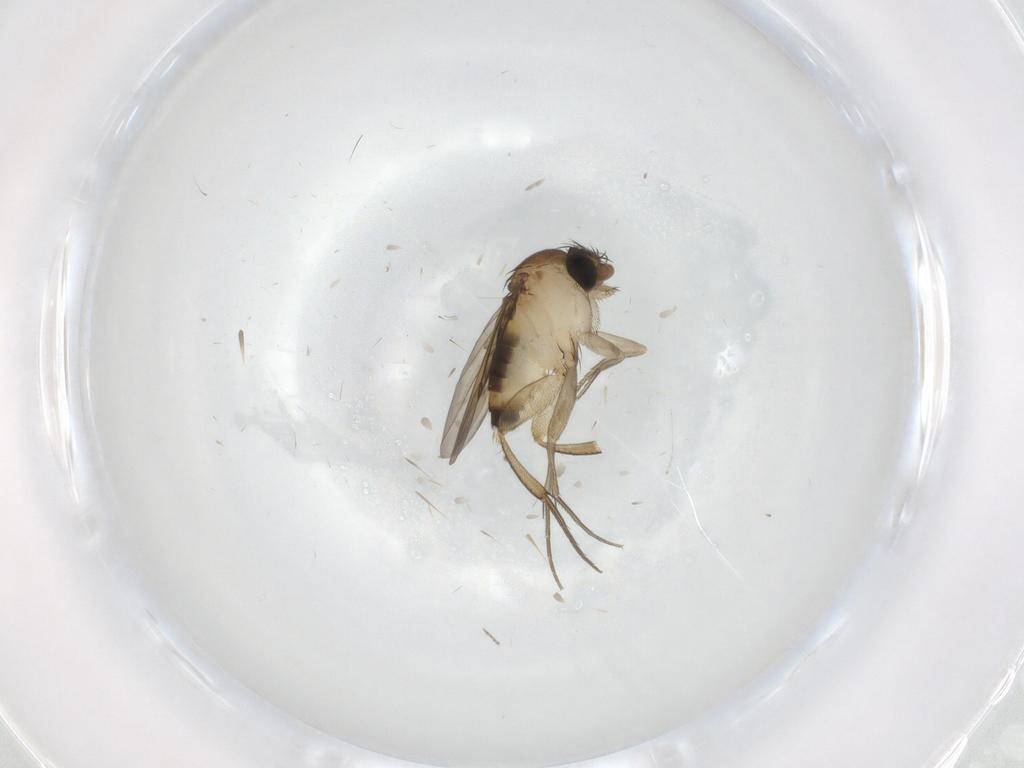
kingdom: Animalia
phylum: Arthropoda
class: Insecta
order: Diptera
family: Ceratopogonidae
